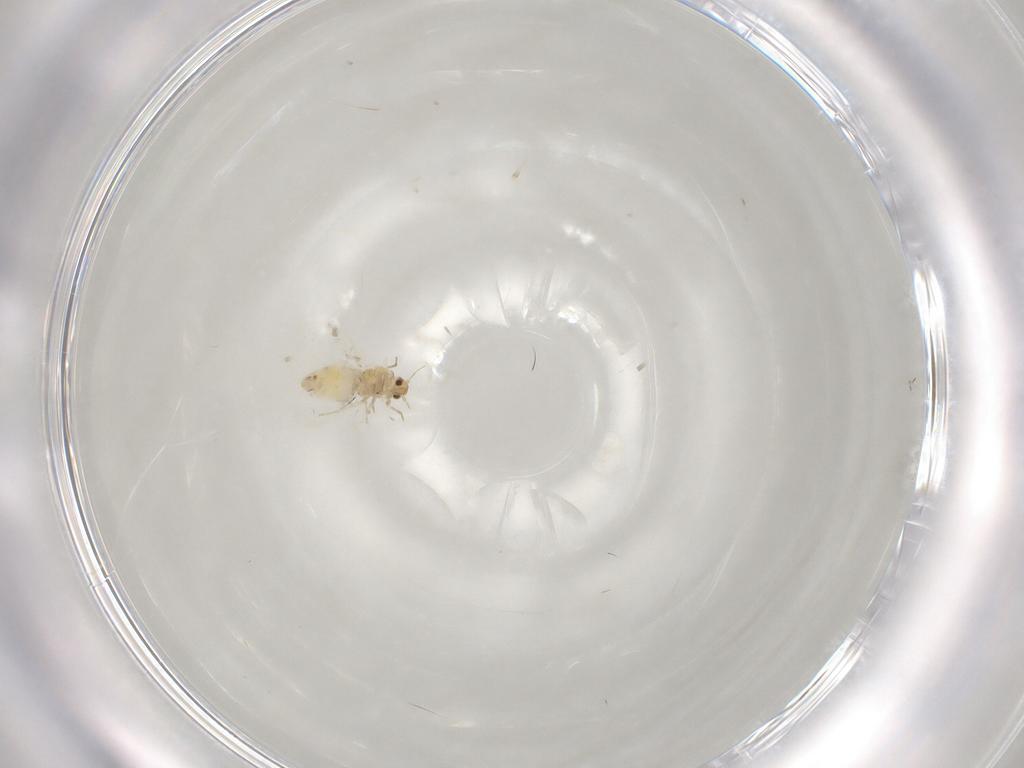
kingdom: Animalia
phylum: Arthropoda
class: Insecta
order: Hemiptera
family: Aleyrodidae
